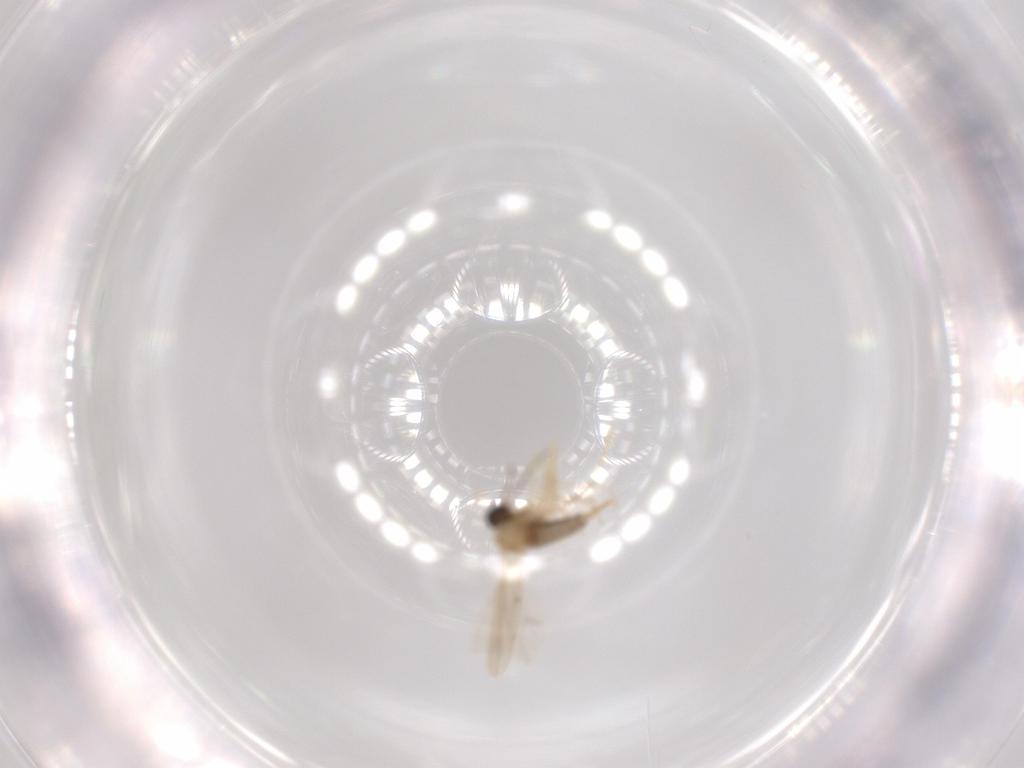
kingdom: Animalia
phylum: Arthropoda
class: Insecta
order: Diptera
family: Cecidomyiidae
